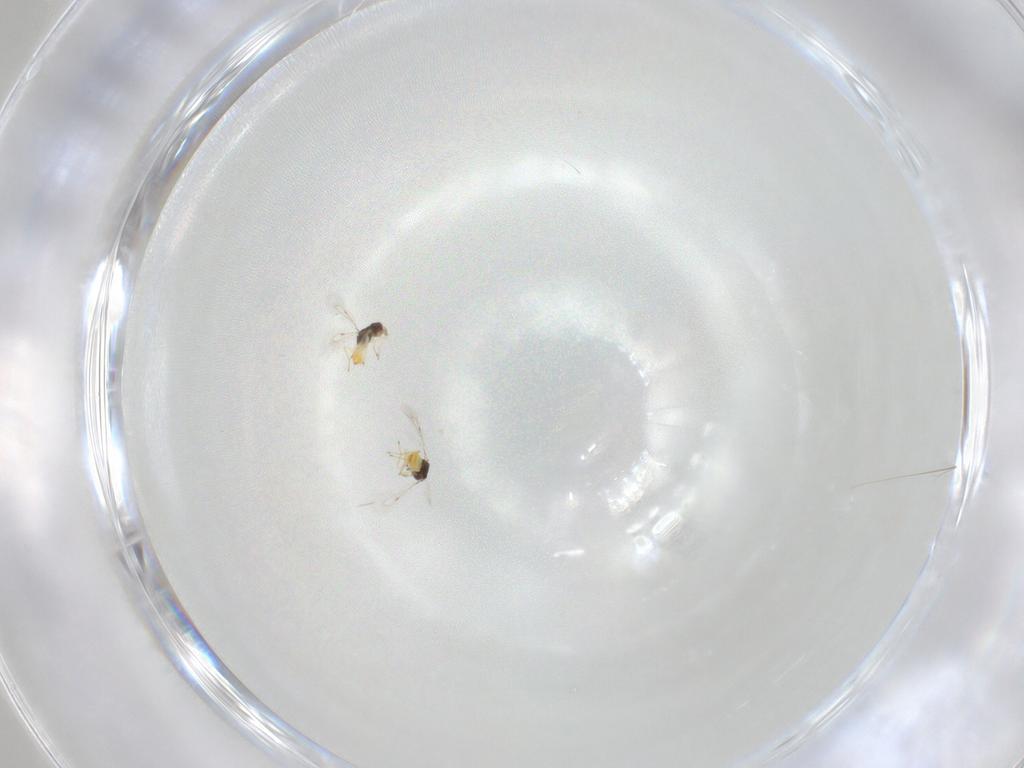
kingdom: Animalia
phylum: Arthropoda
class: Insecta
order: Hymenoptera
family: Eulophidae
